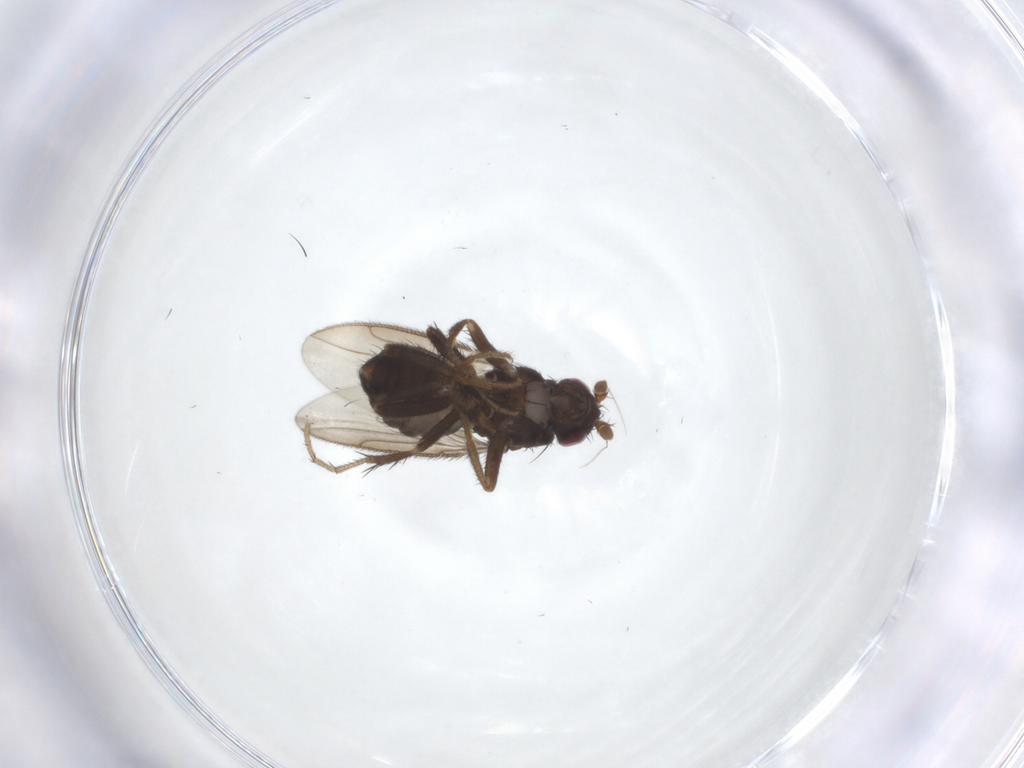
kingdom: Animalia
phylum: Arthropoda
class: Insecta
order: Diptera
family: Sphaeroceridae
